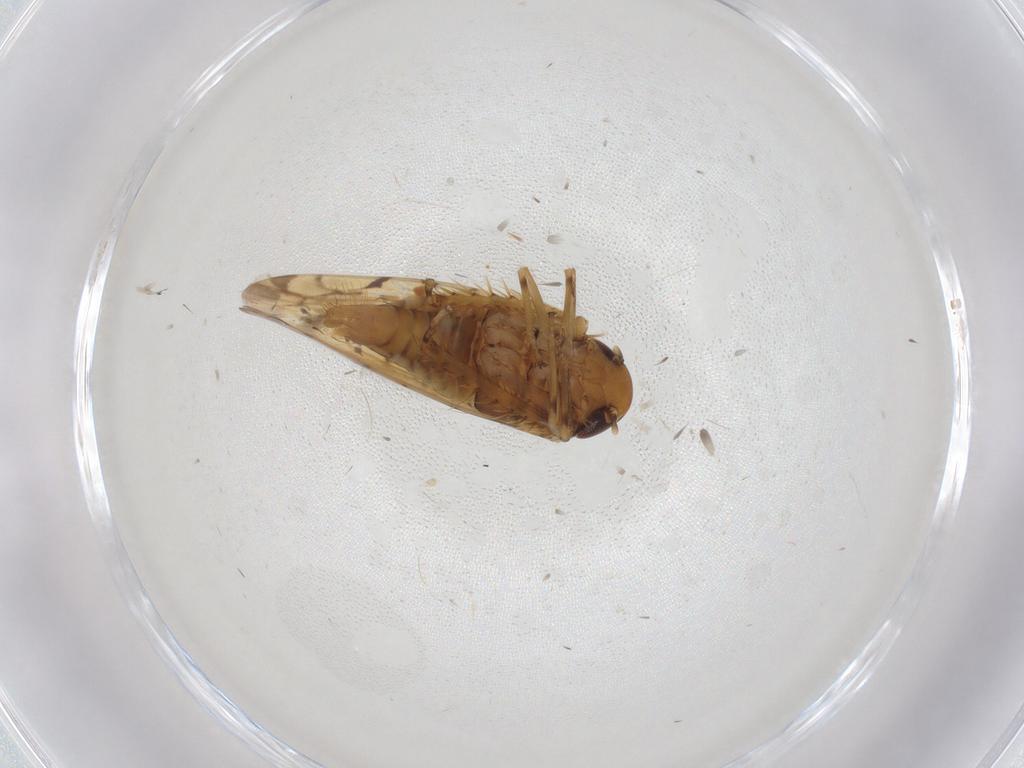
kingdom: Animalia
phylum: Arthropoda
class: Insecta
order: Hemiptera
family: Cicadellidae
